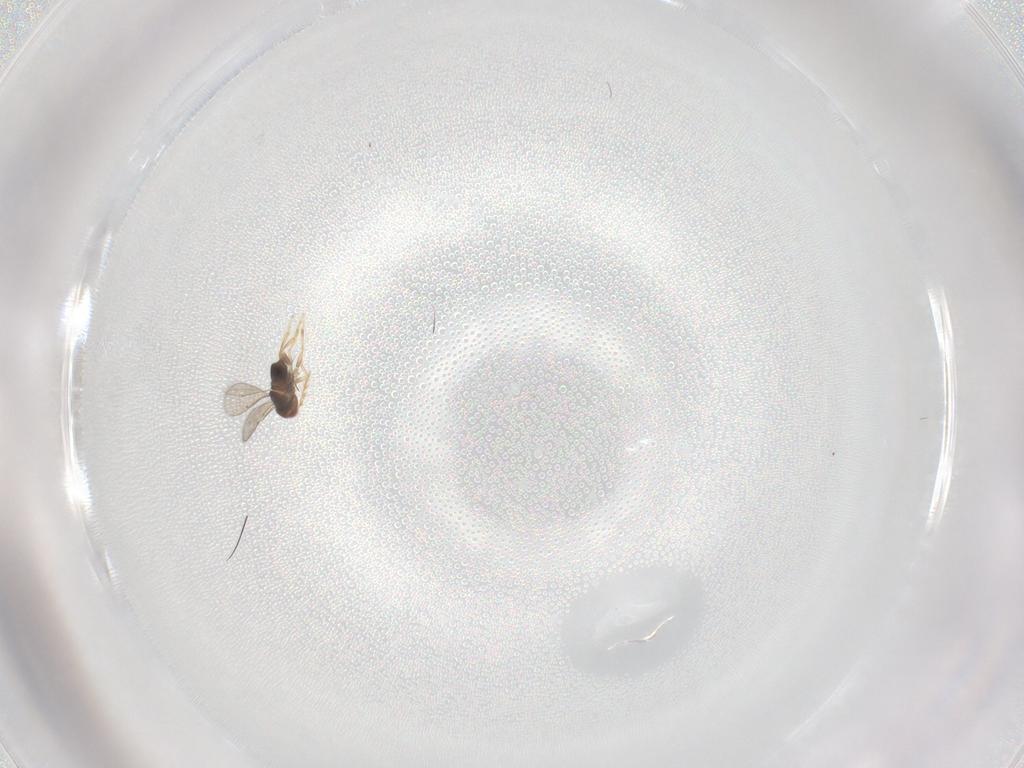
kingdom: Animalia
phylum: Arthropoda
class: Insecta
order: Hymenoptera
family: Encyrtidae
